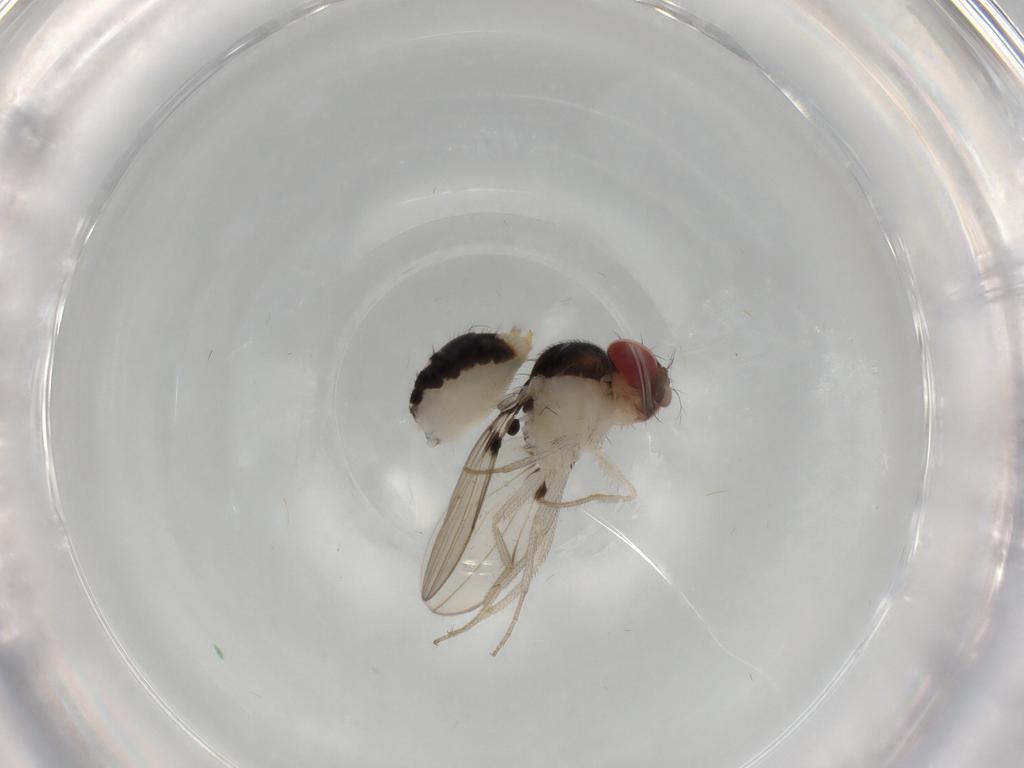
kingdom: Animalia
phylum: Arthropoda
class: Insecta
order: Diptera
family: Drosophilidae
